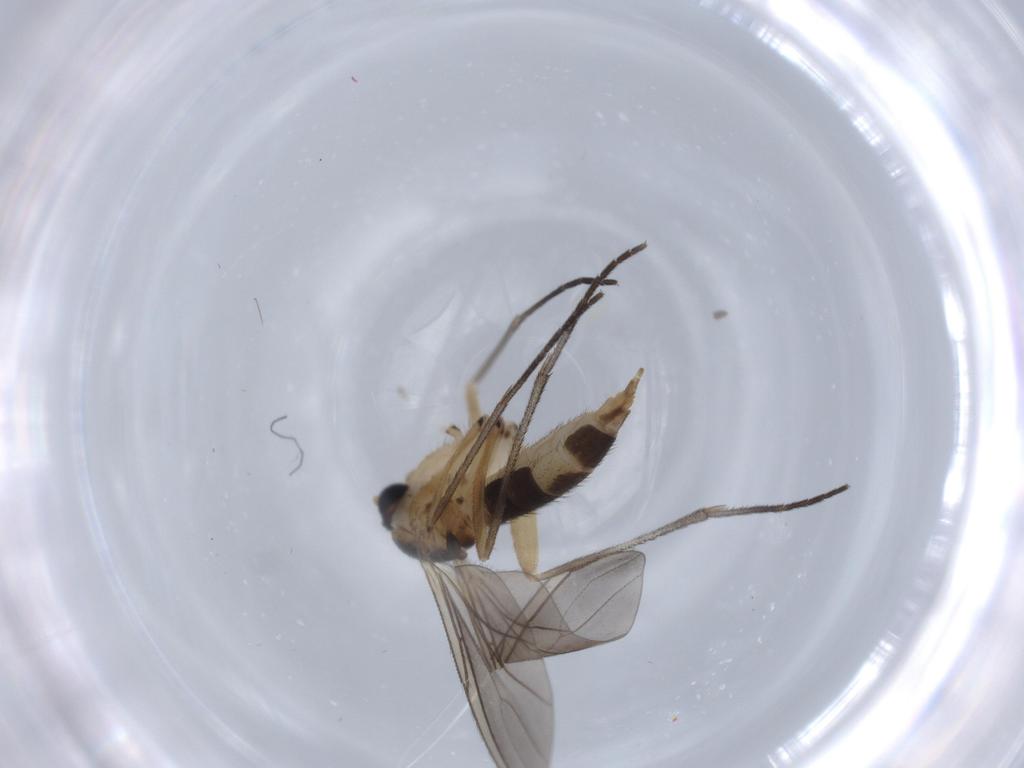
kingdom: Animalia
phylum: Arthropoda
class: Insecta
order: Diptera
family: Sciaridae
